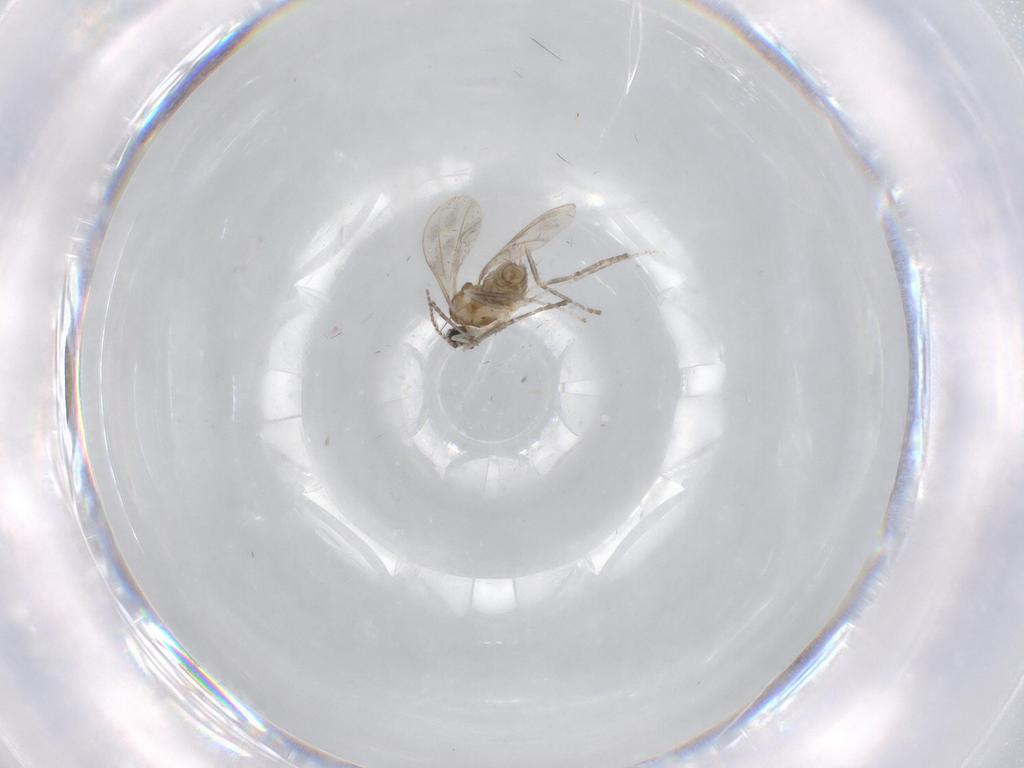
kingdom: Animalia
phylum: Arthropoda
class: Insecta
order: Diptera
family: Cecidomyiidae
